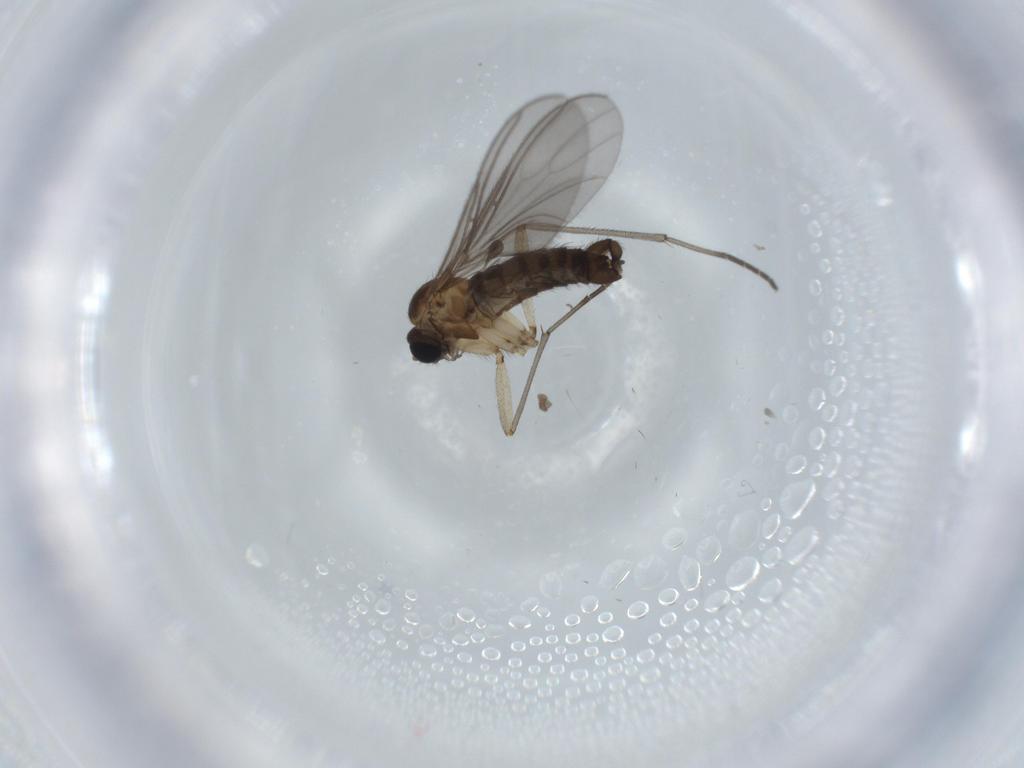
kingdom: Animalia
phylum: Arthropoda
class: Insecta
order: Diptera
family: Sciaridae
